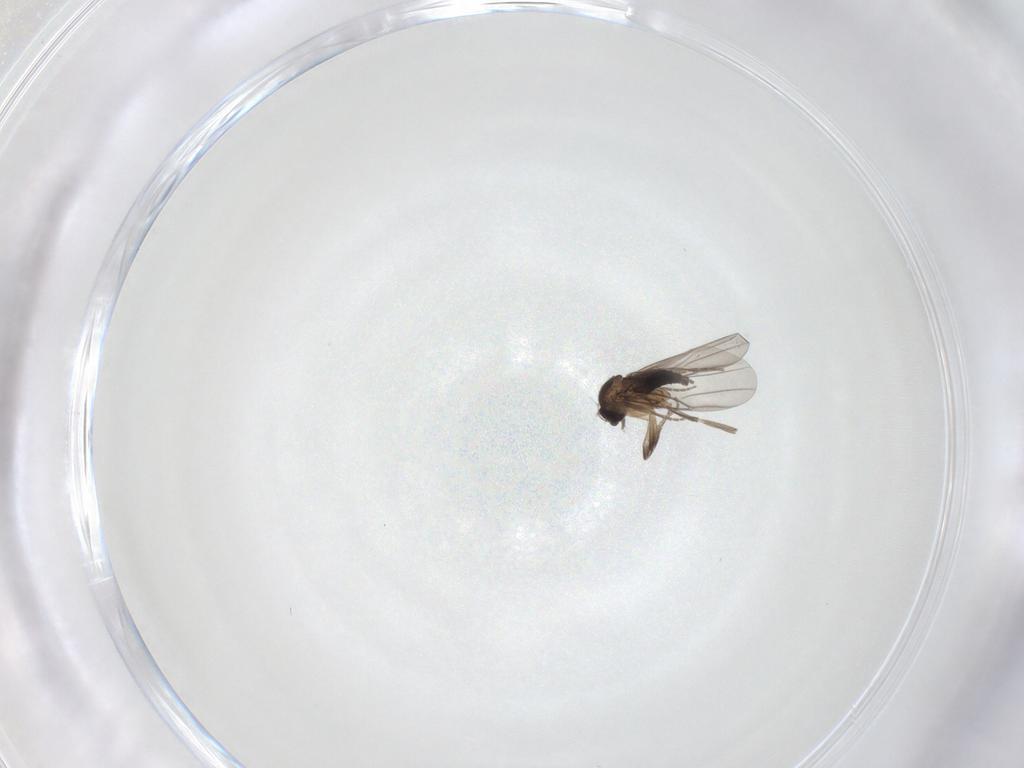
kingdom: Animalia
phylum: Arthropoda
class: Insecta
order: Diptera
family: Phoridae
